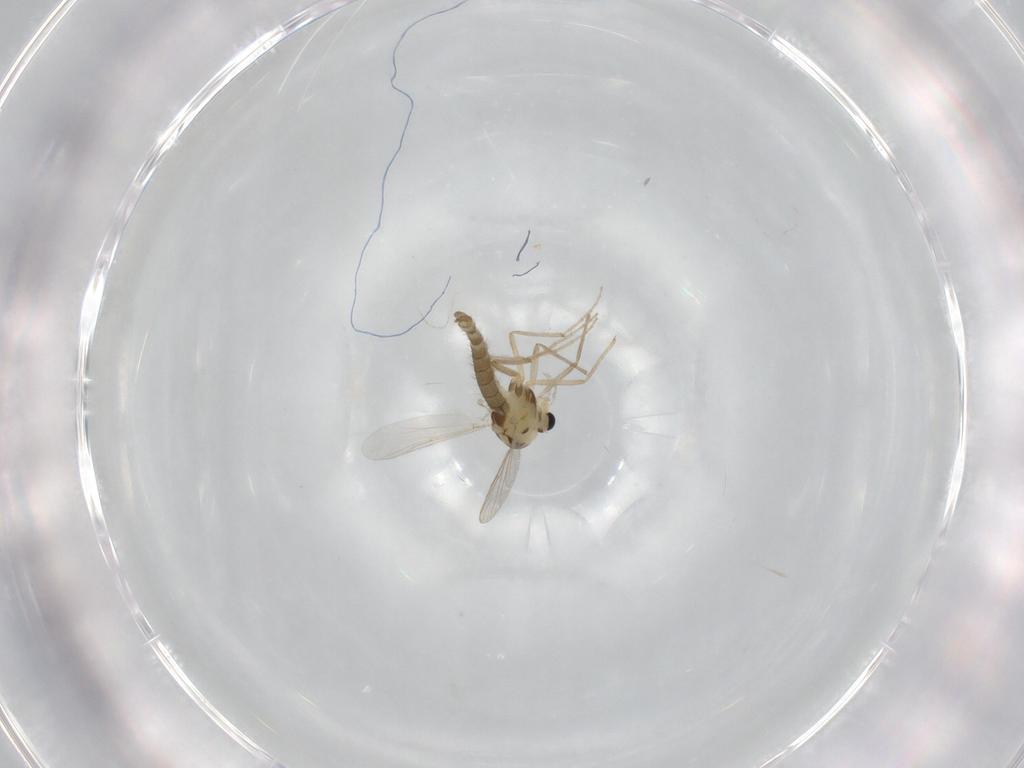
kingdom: Animalia
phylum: Arthropoda
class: Insecta
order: Diptera
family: Chironomidae
